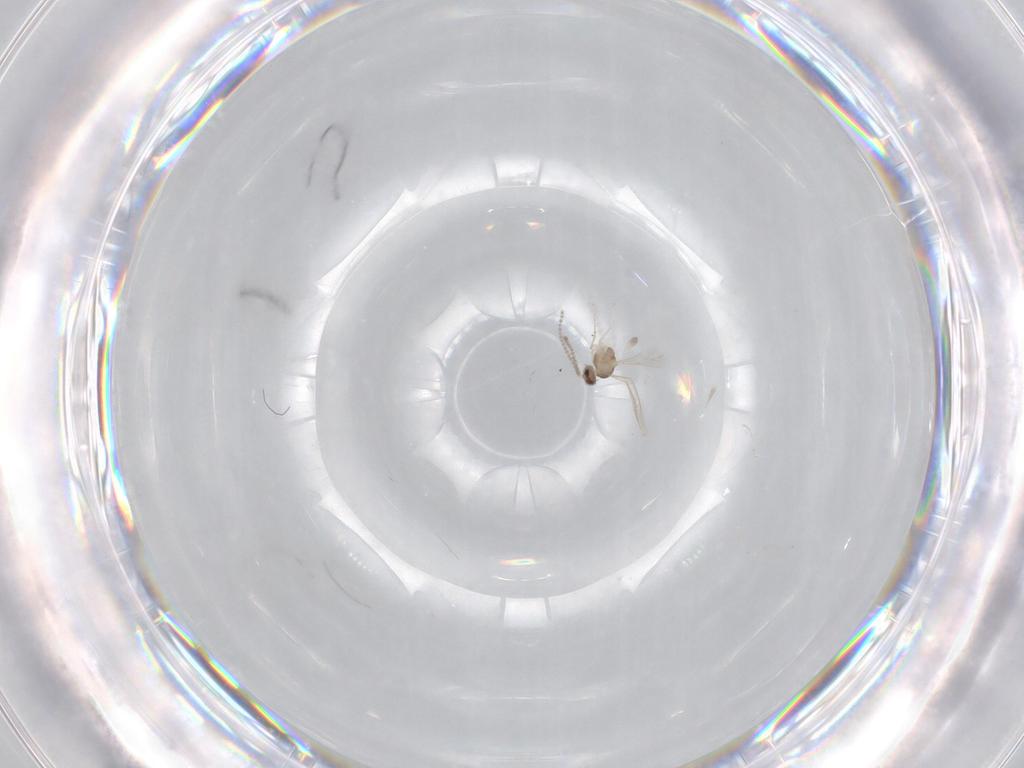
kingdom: Animalia
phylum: Arthropoda
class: Insecta
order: Diptera
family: Cecidomyiidae
